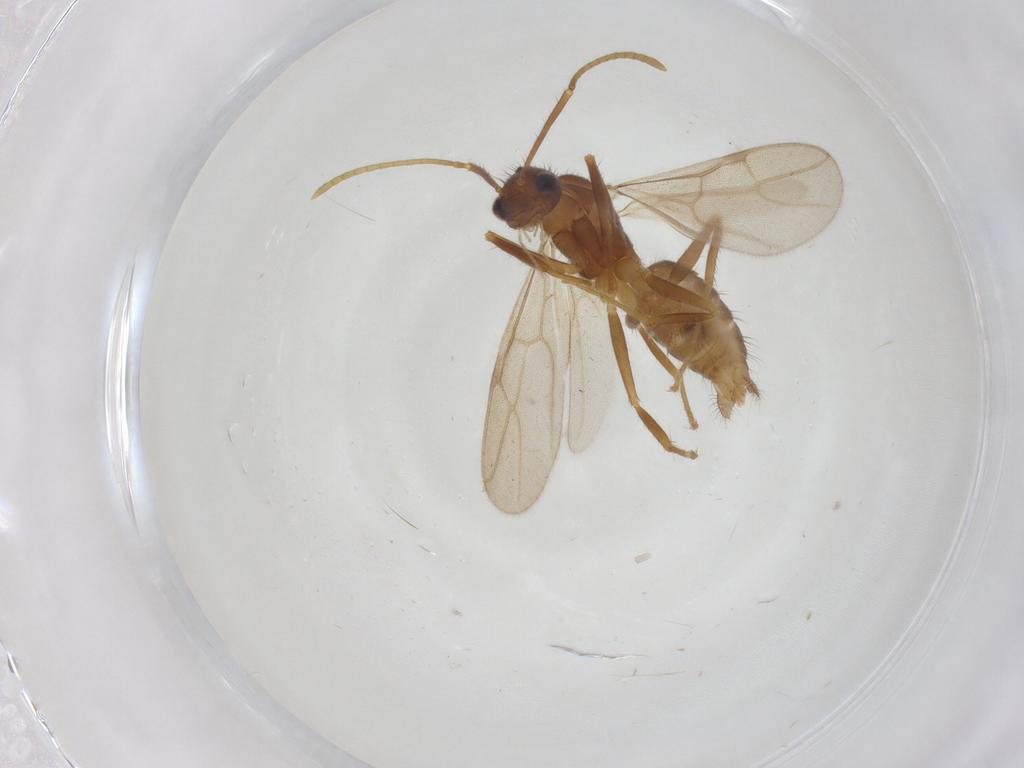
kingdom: Animalia
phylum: Arthropoda
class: Insecta
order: Hymenoptera
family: Formicidae
